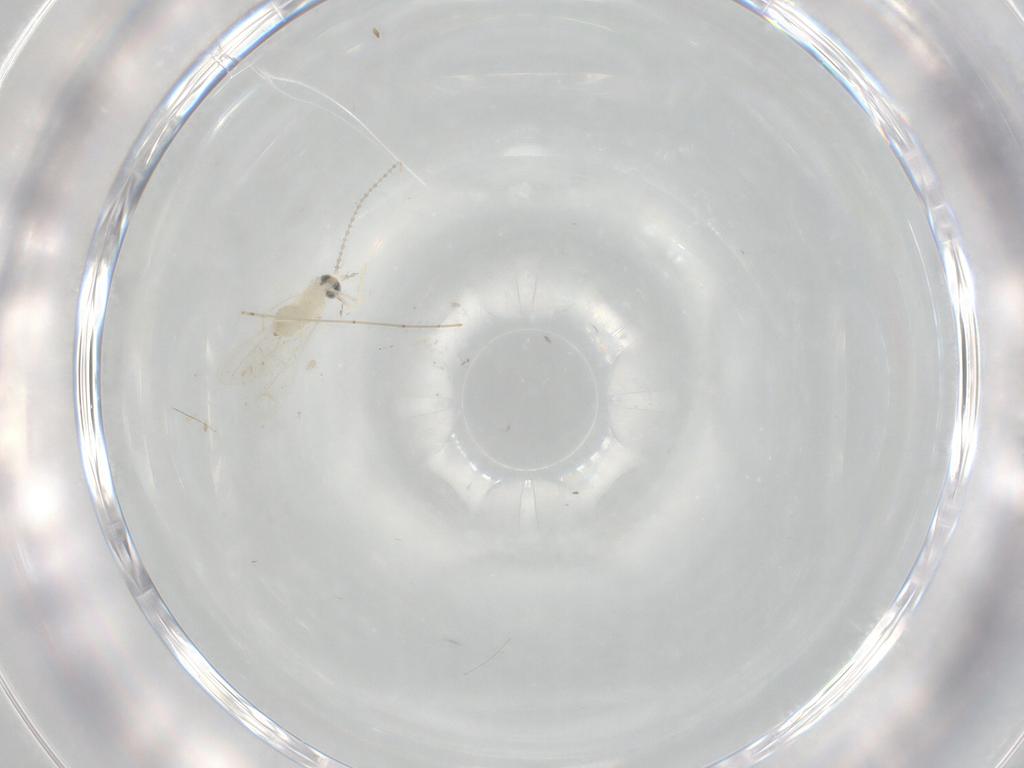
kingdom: Animalia
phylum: Arthropoda
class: Insecta
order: Diptera
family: Cecidomyiidae
